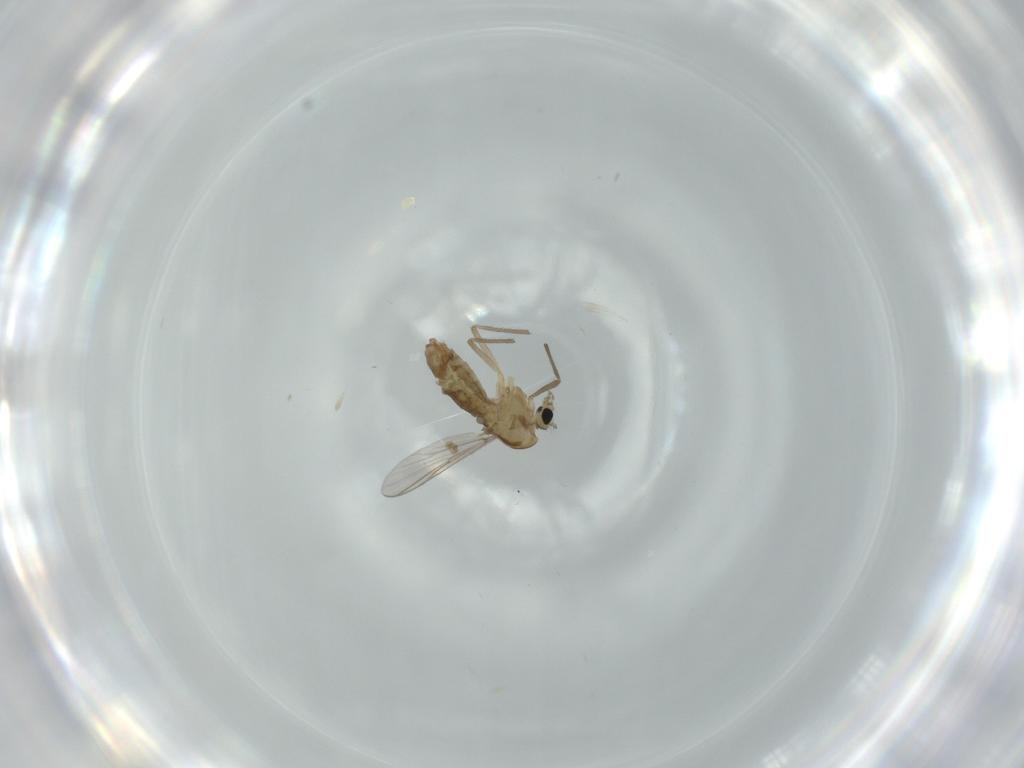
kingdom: Animalia
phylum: Arthropoda
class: Insecta
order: Diptera
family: Chironomidae
